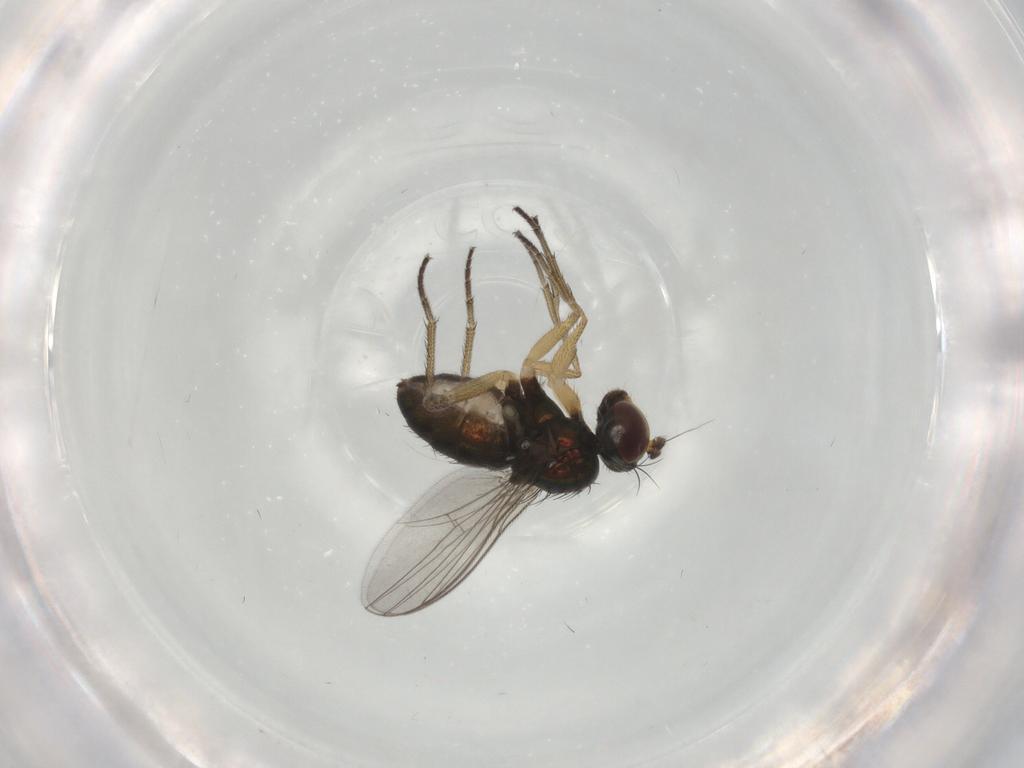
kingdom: Animalia
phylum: Arthropoda
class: Insecta
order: Diptera
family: Dolichopodidae
